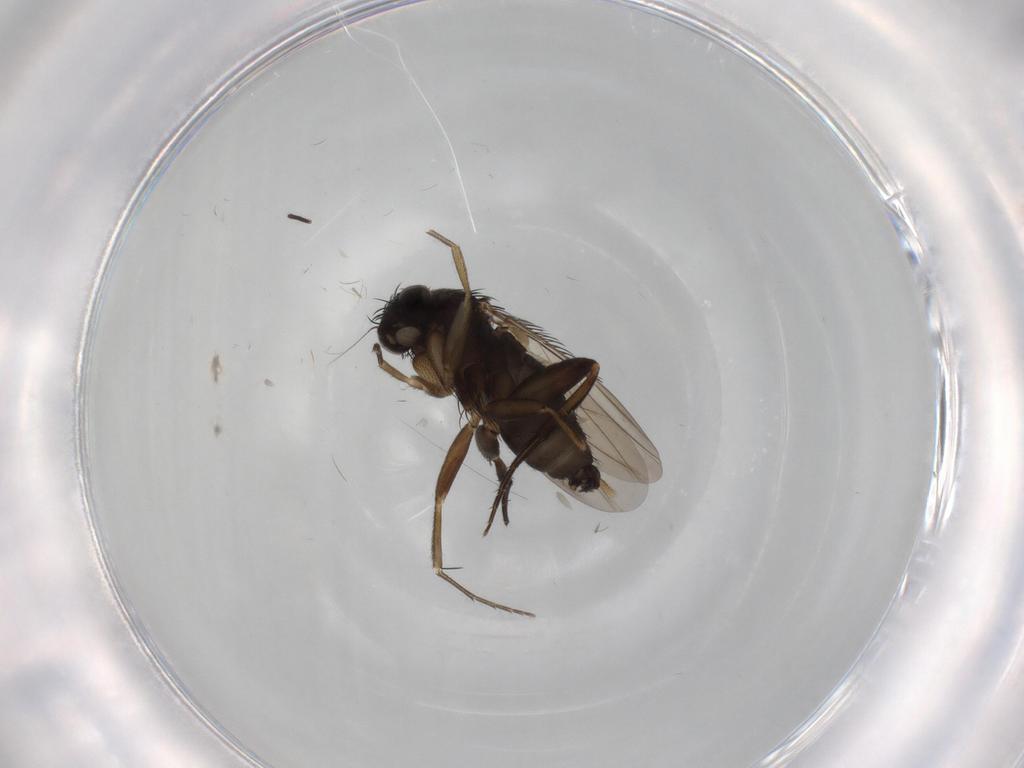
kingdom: Animalia
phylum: Arthropoda
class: Insecta
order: Diptera
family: Phoridae
